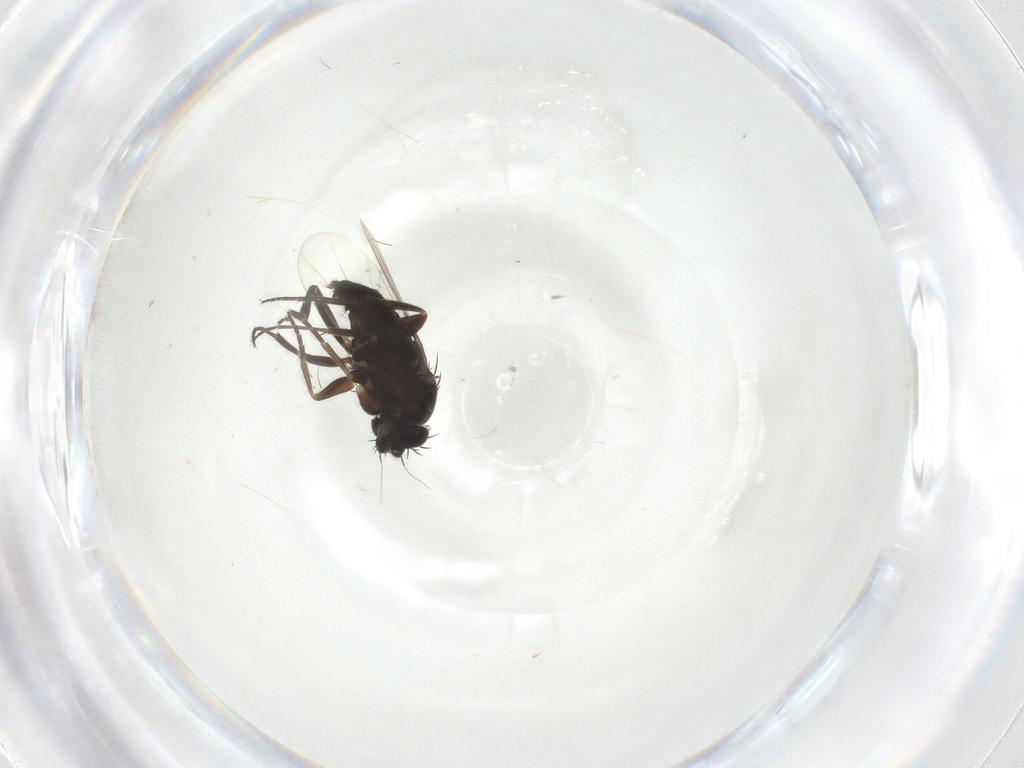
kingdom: Animalia
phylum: Arthropoda
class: Insecta
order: Diptera
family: Phoridae
